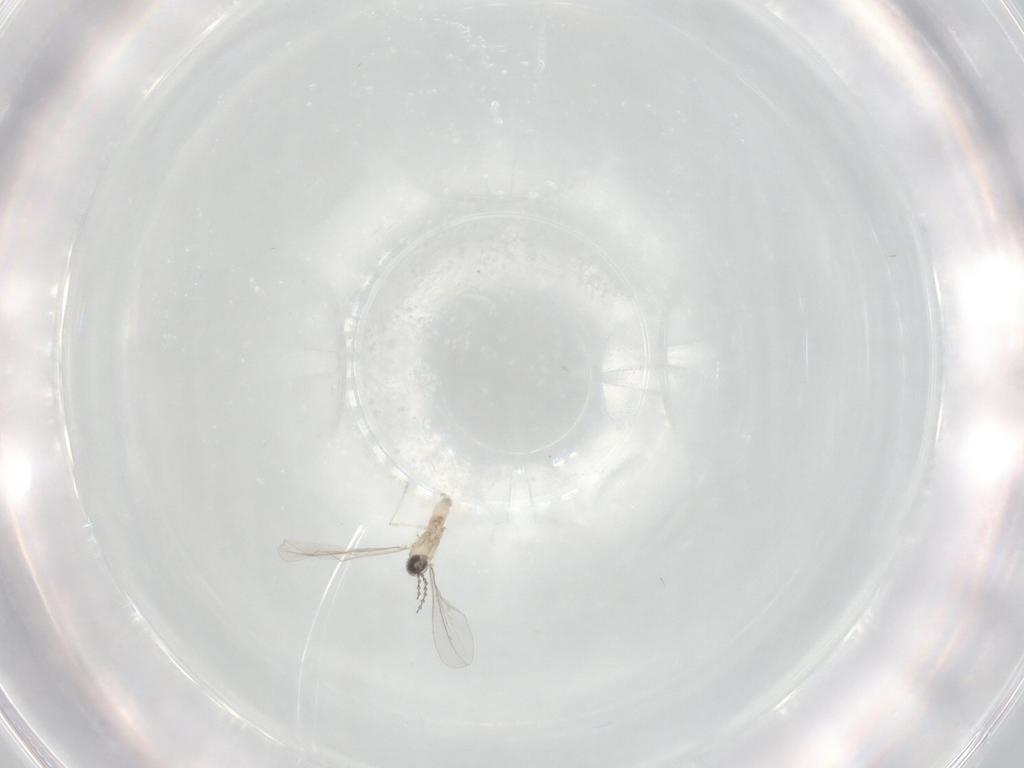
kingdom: Animalia
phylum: Arthropoda
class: Insecta
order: Diptera
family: Cecidomyiidae
